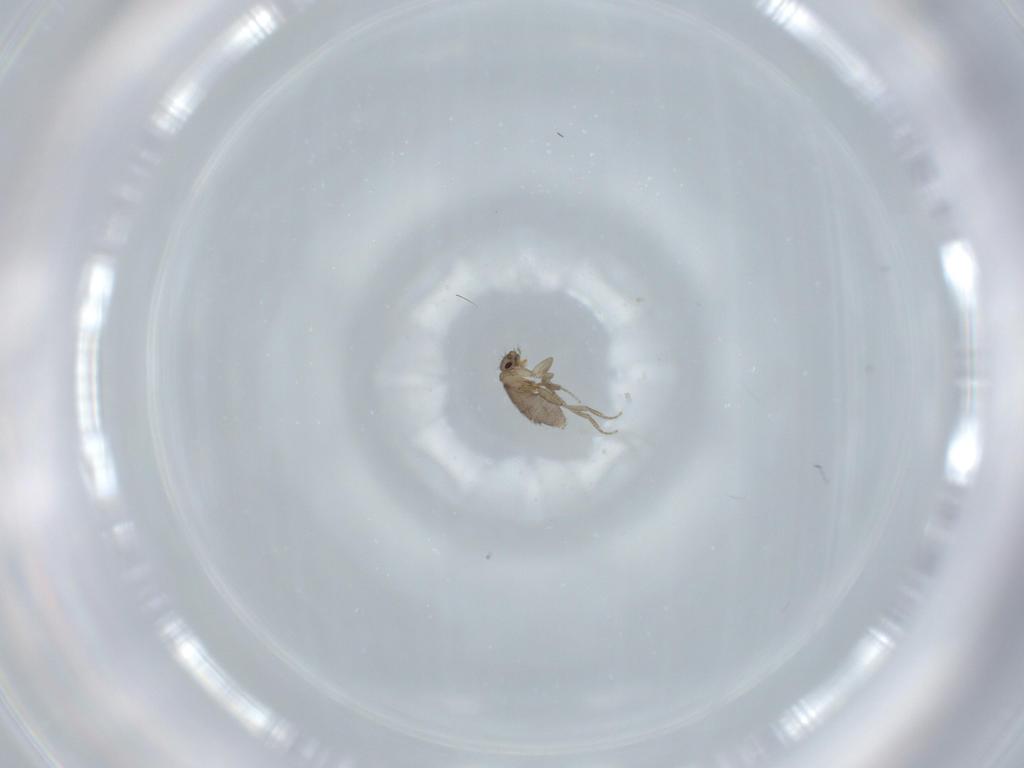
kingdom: Animalia
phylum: Arthropoda
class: Insecta
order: Diptera
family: Phoridae
